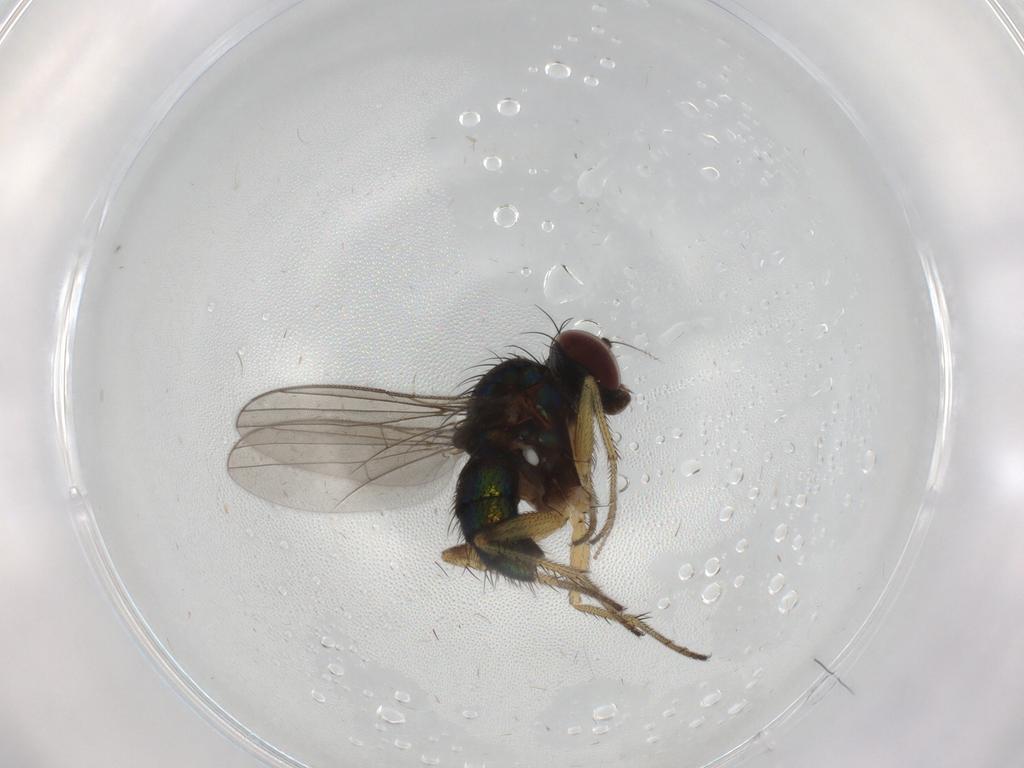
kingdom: Animalia
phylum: Arthropoda
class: Insecta
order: Diptera
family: Dolichopodidae
